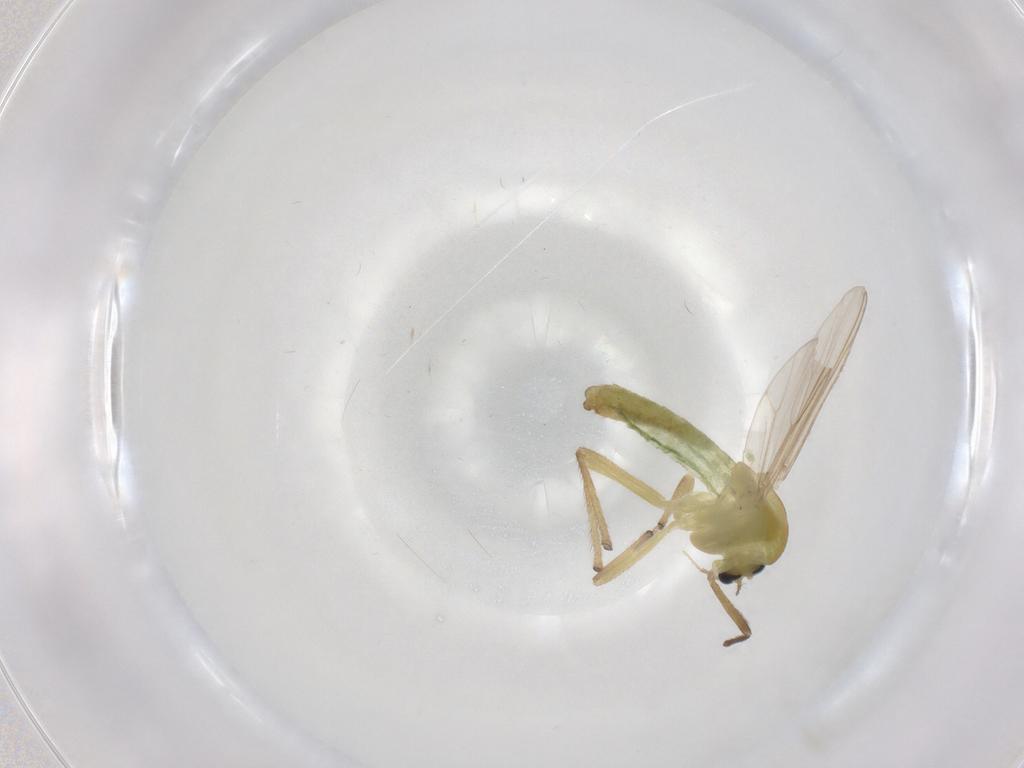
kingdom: Animalia
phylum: Arthropoda
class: Insecta
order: Diptera
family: Chironomidae
